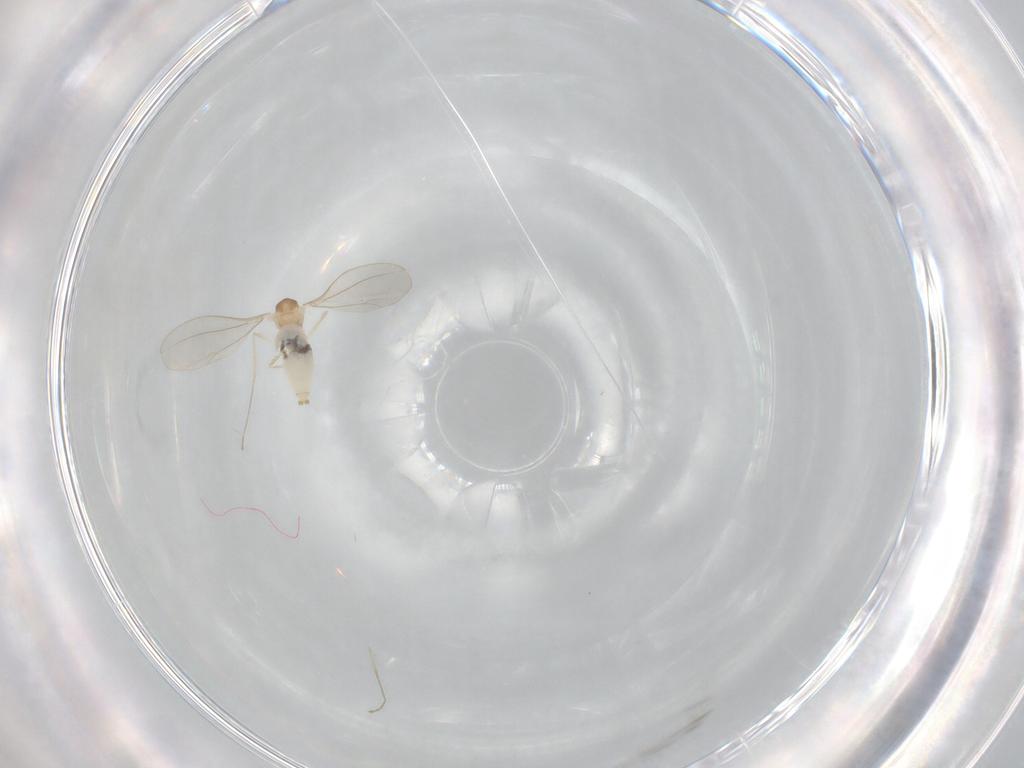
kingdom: Animalia
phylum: Arthropoda
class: Insecta
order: Diptera
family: Cecidomyiidae
